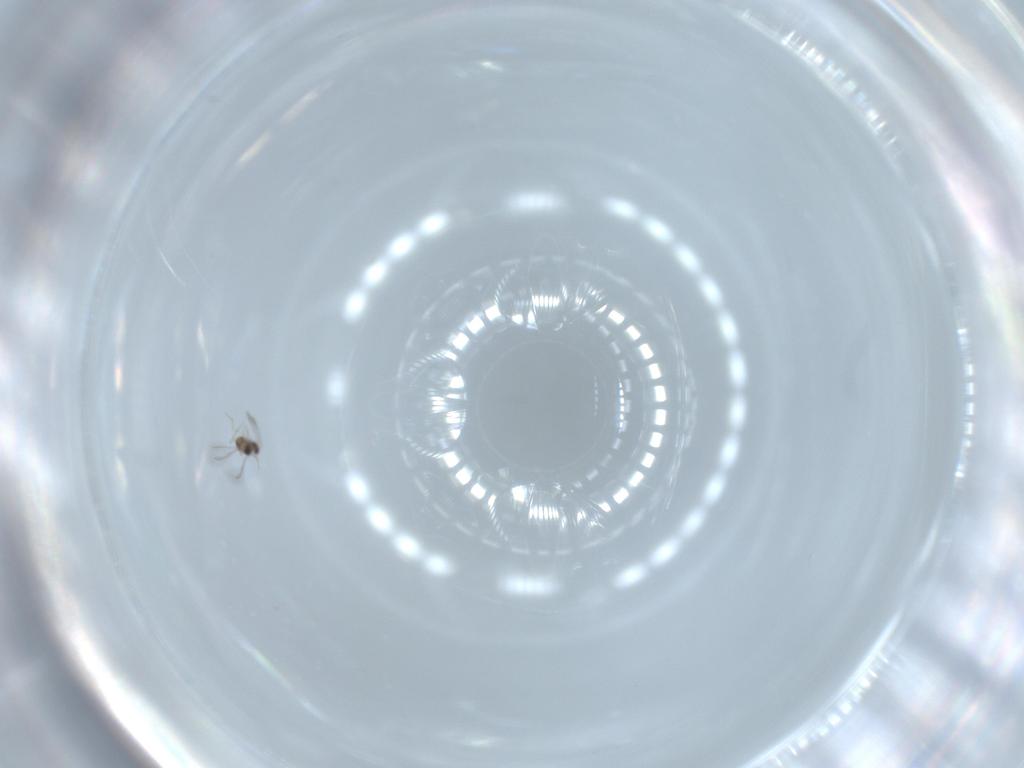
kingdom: Animalia
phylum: Arthropoda
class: Insecta
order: Hymenoptera
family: Mymaridae
